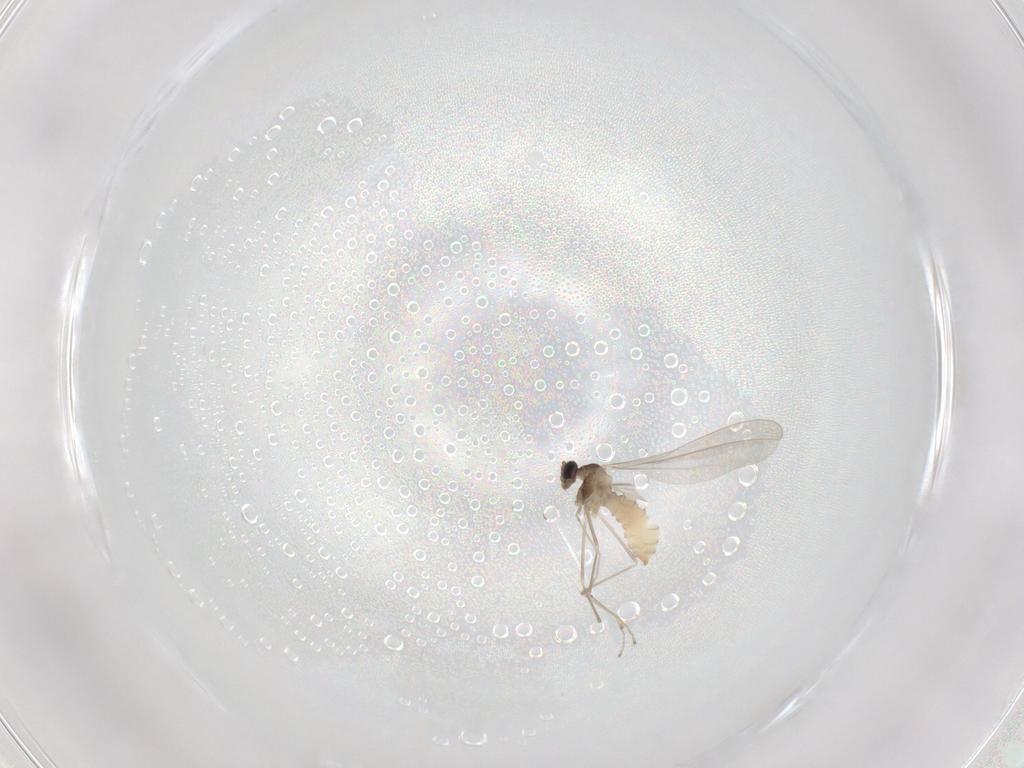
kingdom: Animalia
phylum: Arthropoda
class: Insecta
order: Diptera
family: Cecidomyiidae
